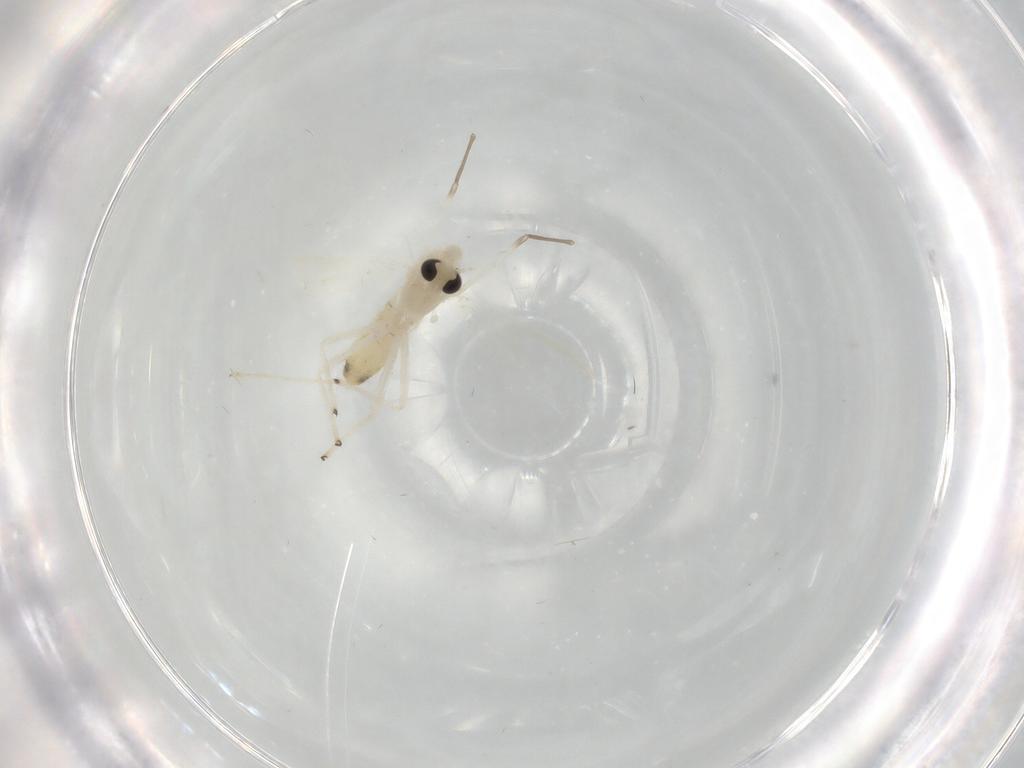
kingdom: Animalia
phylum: Arthropoda
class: Insecta
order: Diptera
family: Chironomidae
